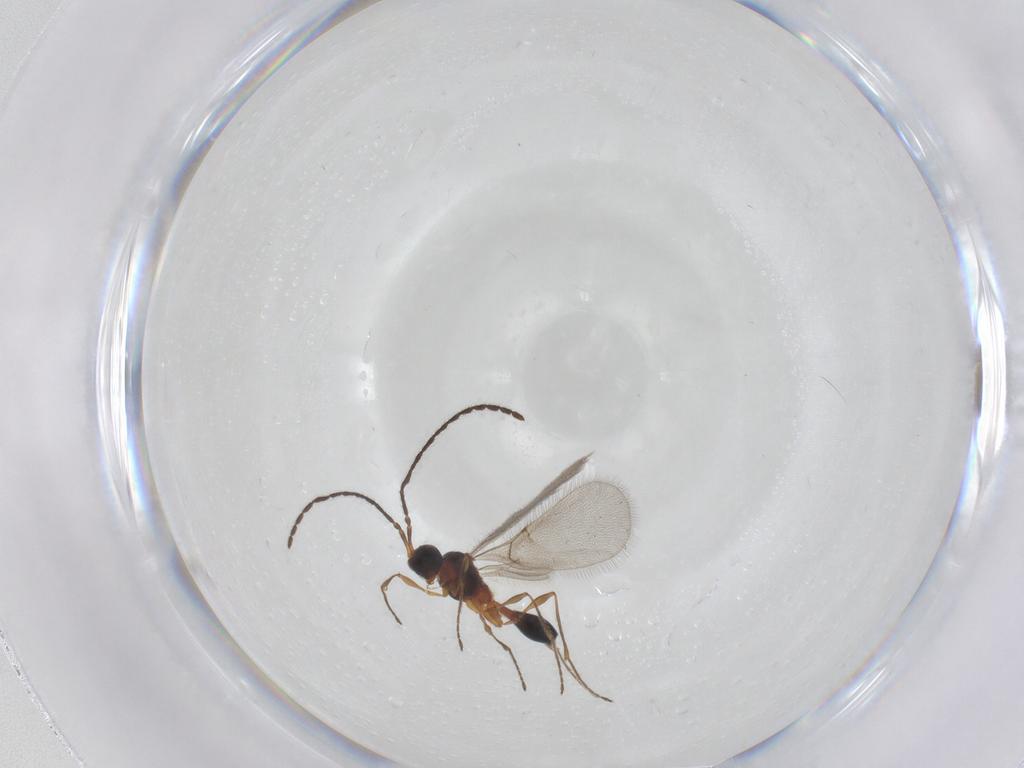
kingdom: Animalia
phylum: Arthropoda
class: Insecta
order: Hymenoptera
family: Diapriidae
